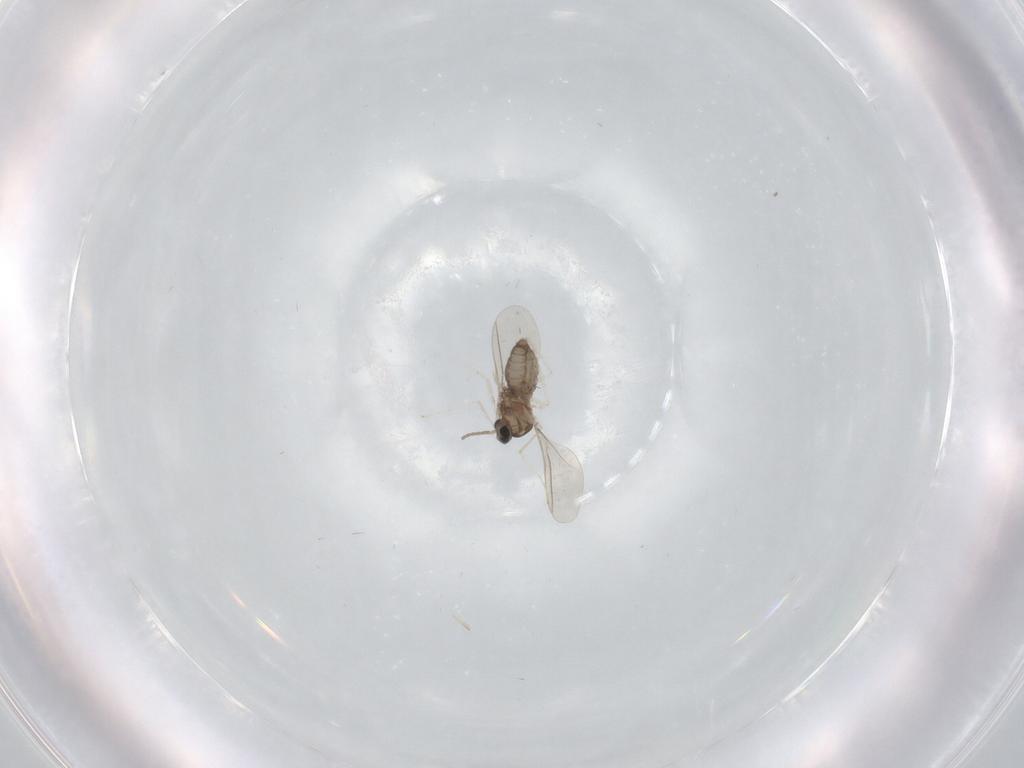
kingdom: Animalia
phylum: Arthropoda
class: Insecta
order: Diptera
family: Cecidomyiidae
